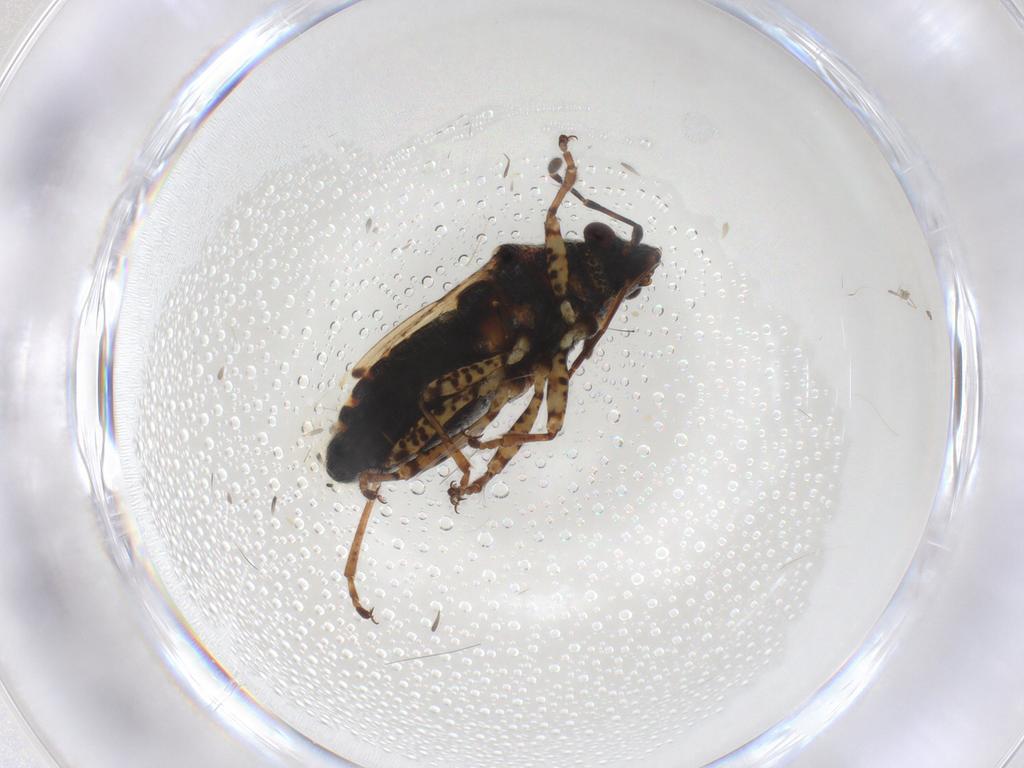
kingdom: Animalia
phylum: Arthropoda
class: Insecta
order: Hemiptera
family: Lygaeidae
